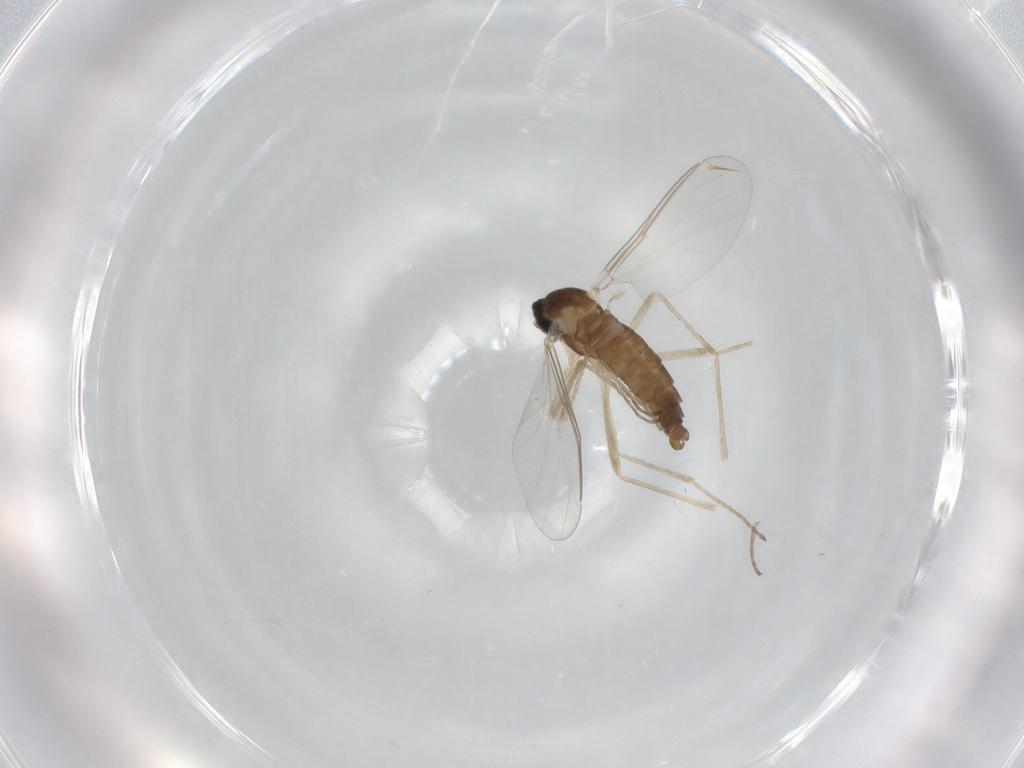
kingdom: Animalia
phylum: Arthropoda
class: Insecta
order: Diptera
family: Cecidomyiidae
